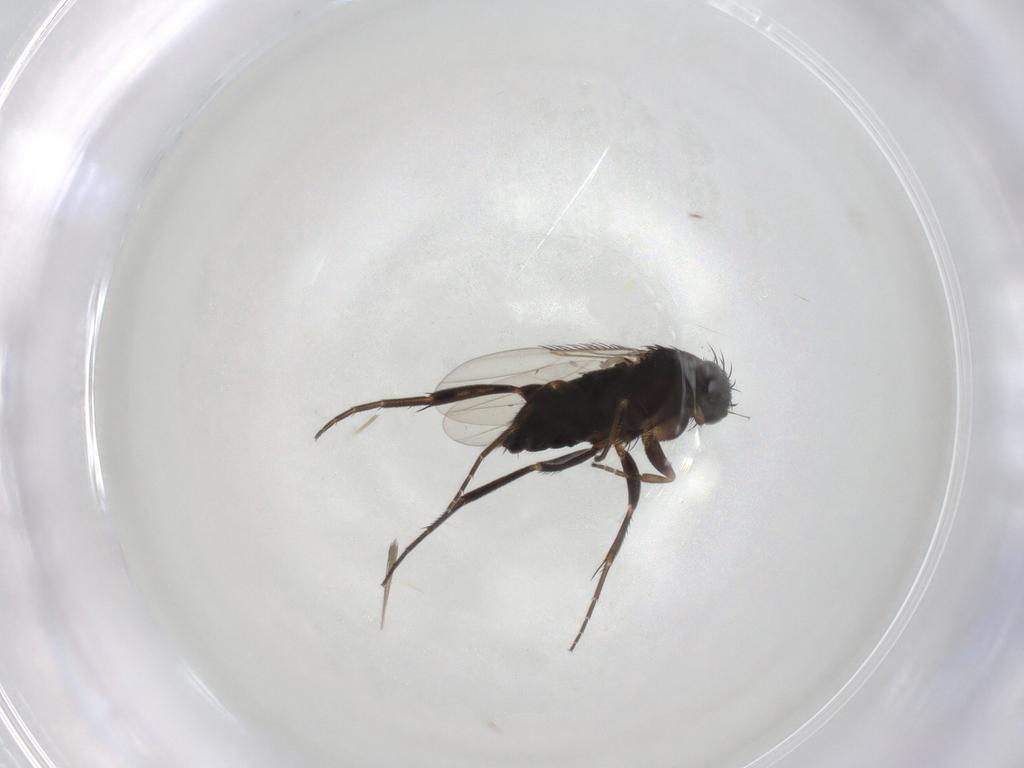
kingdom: Animalia
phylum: Arthropoda
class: Insecta
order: Diptera
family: Phoridae
